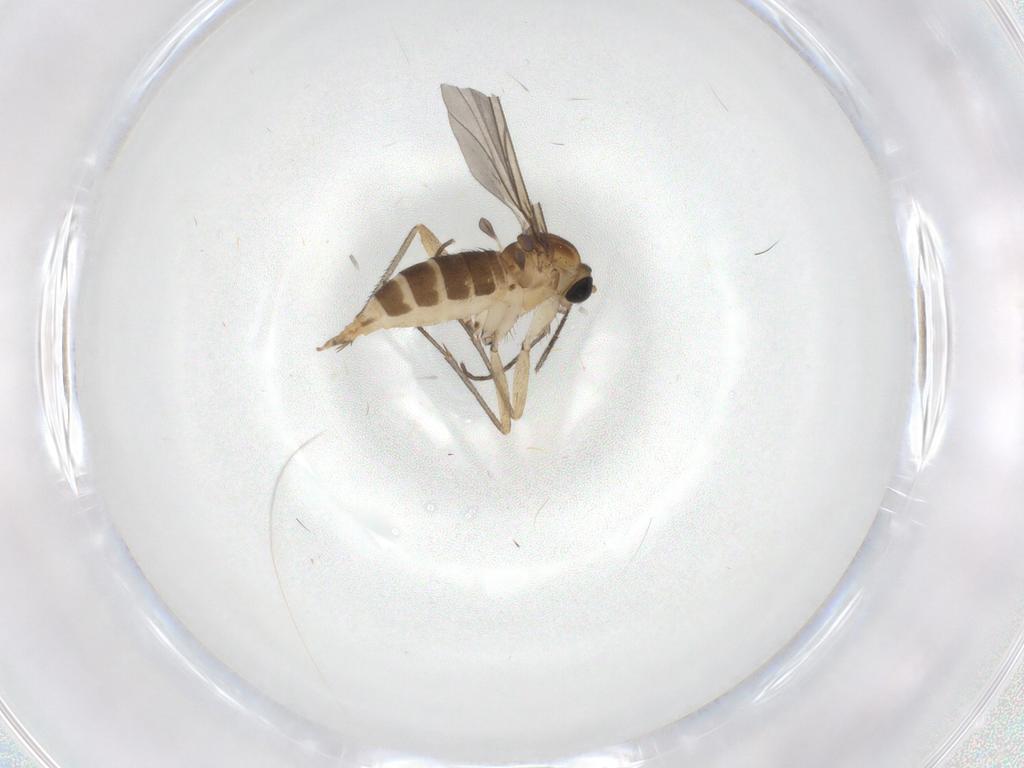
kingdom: Animalia
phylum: Arthropoda
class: Insecta
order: Diptera
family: Sciaridae
